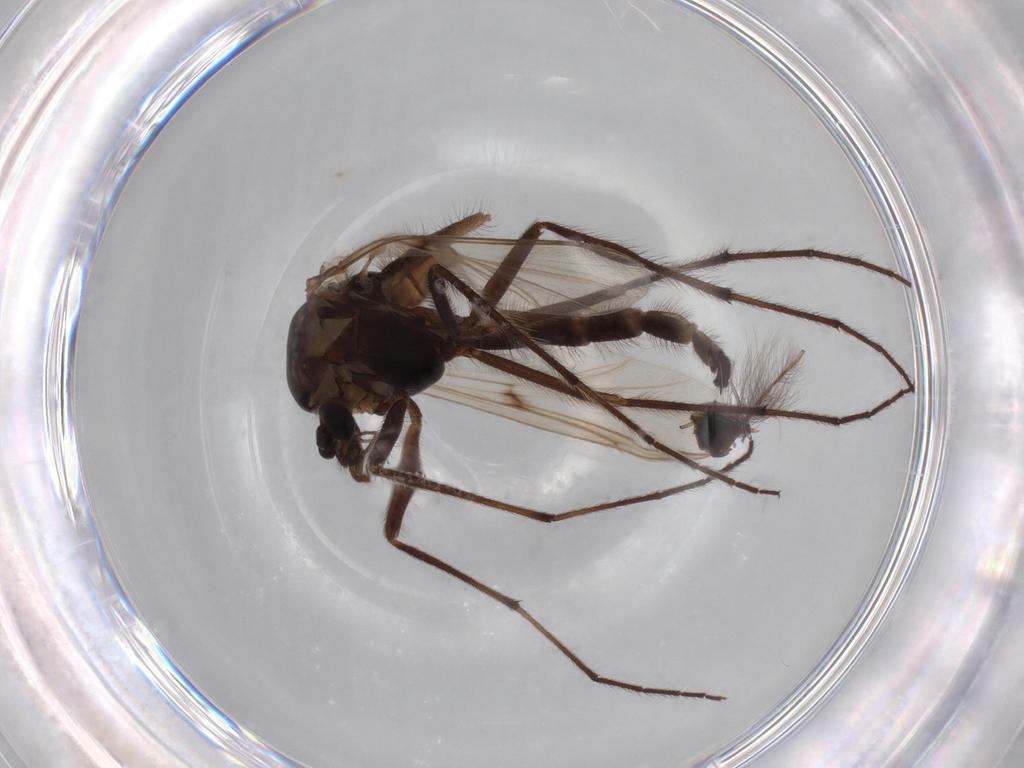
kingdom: Animalia
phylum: Arthropoda
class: Insecta
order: Diptera
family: Chironomidae
